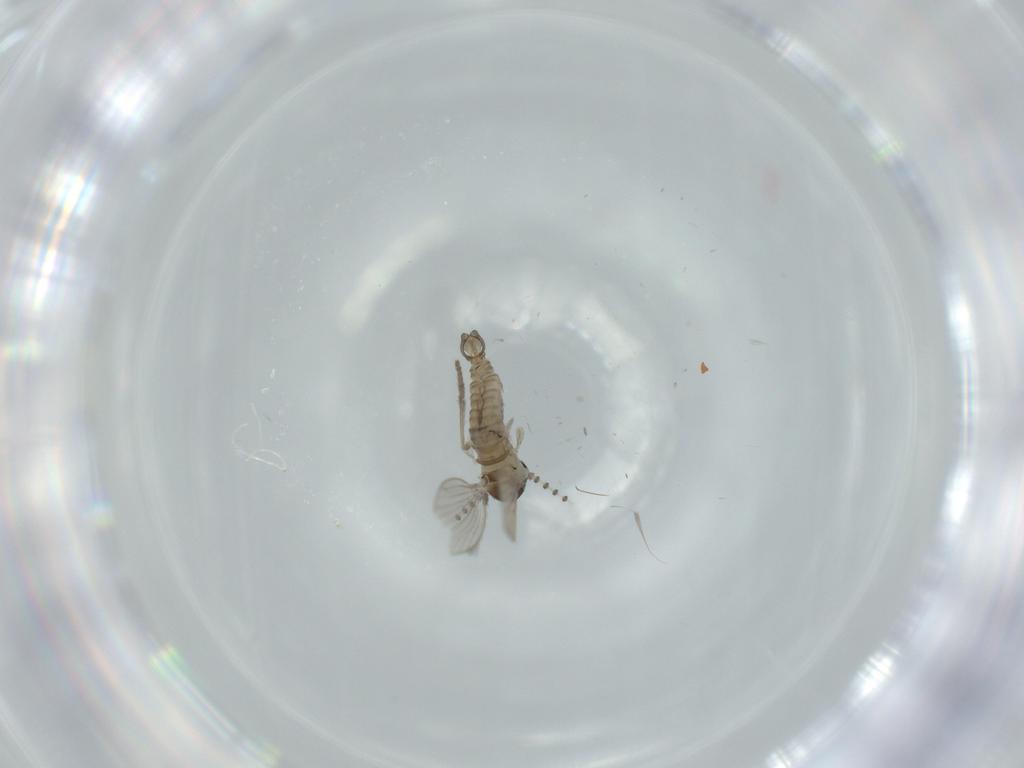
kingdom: Animalia
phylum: Arthropoda
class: Insecta
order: Diptera
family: Psychodidae
